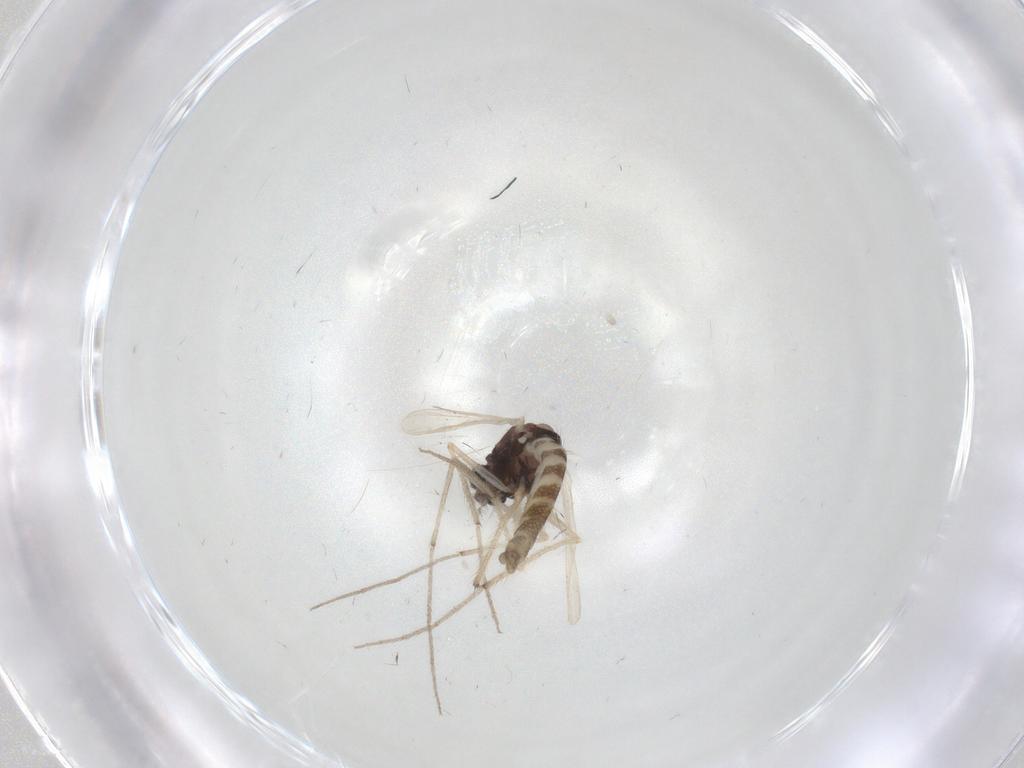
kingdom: Animalia
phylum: Arthropoda
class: Insecta
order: Diptera
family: Chironomidae
